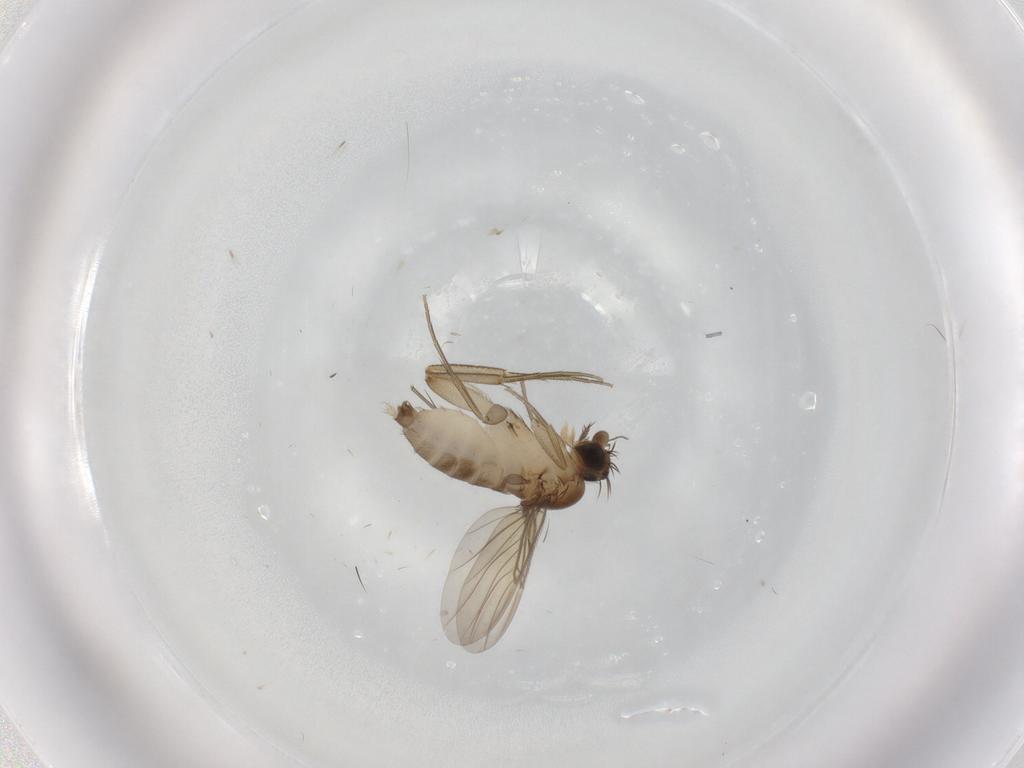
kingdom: Animalia
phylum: Arthropoda
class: Insecta
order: Diptera
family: Phoridae
